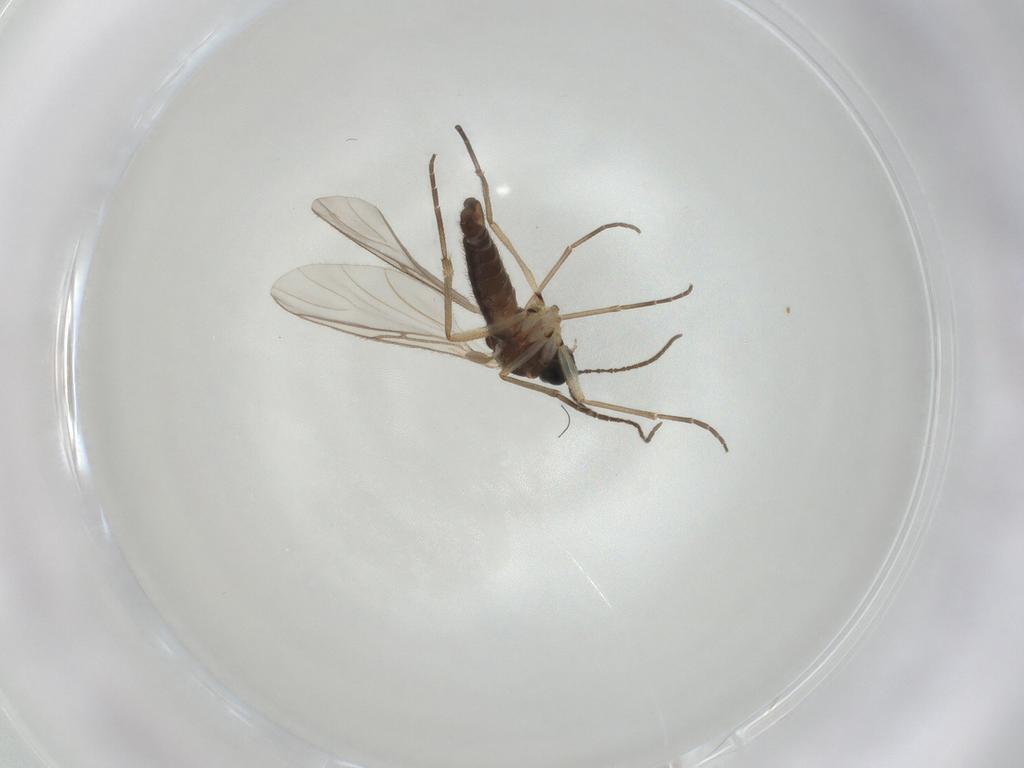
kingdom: Animalia
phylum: Arthropoda
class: Insecta
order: Diptera
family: Sciaridae
